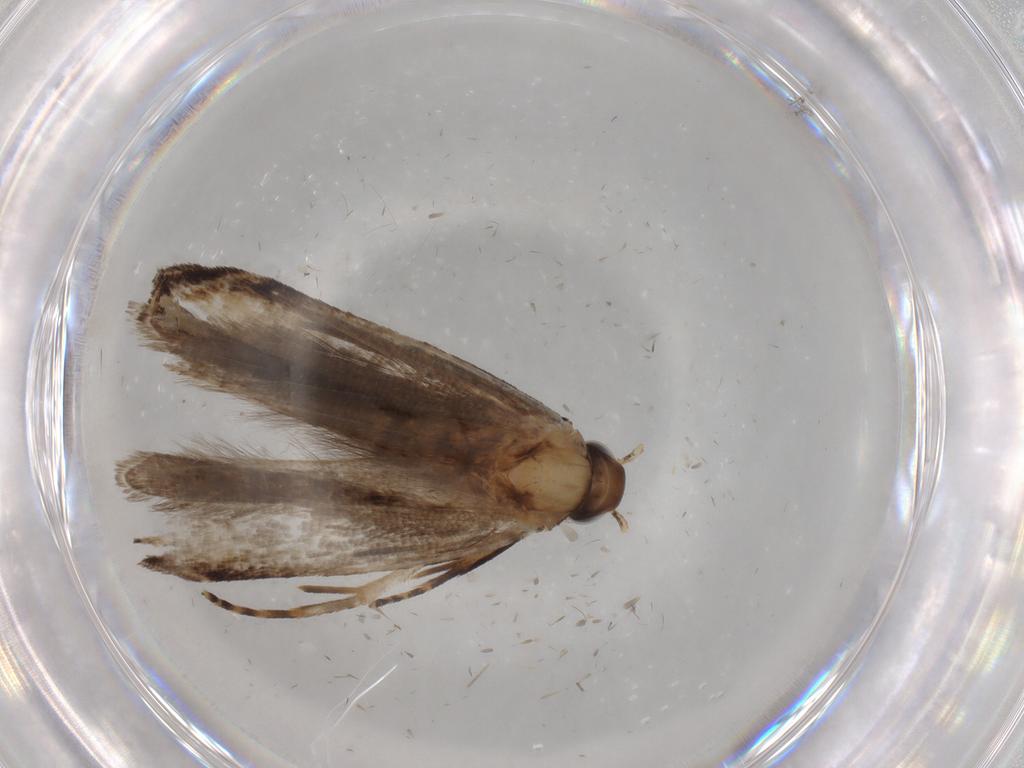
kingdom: Animalia
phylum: Arthropoda
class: Insecta
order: Lepidoptera
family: Gelechiidae
